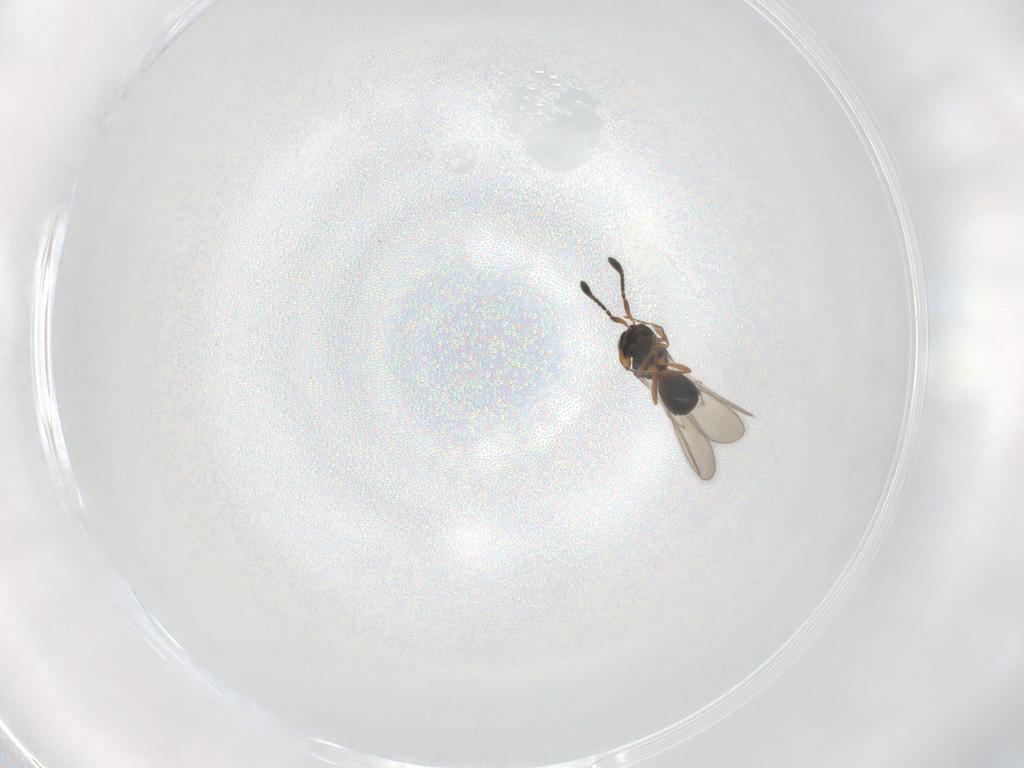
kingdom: Animalia
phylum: Arthropoda
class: Insecta
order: Hymenoptera
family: Scelionidae
